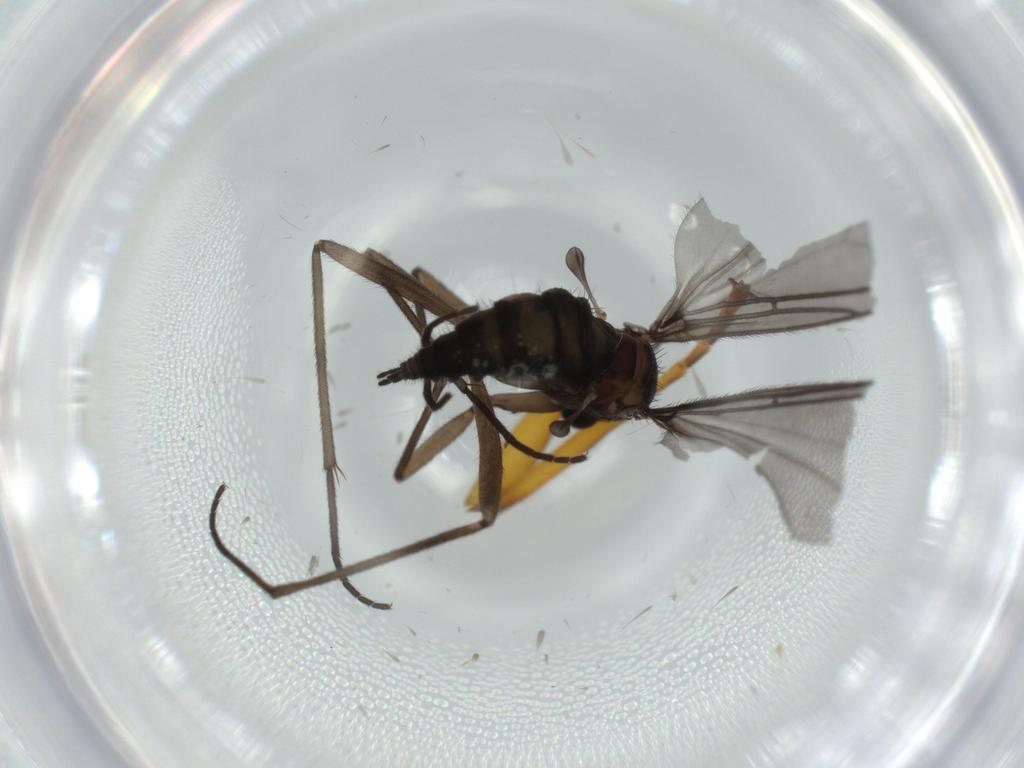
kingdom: Animalia
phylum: Arthropoda
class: Insecta
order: Diptera
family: Sciaridae
